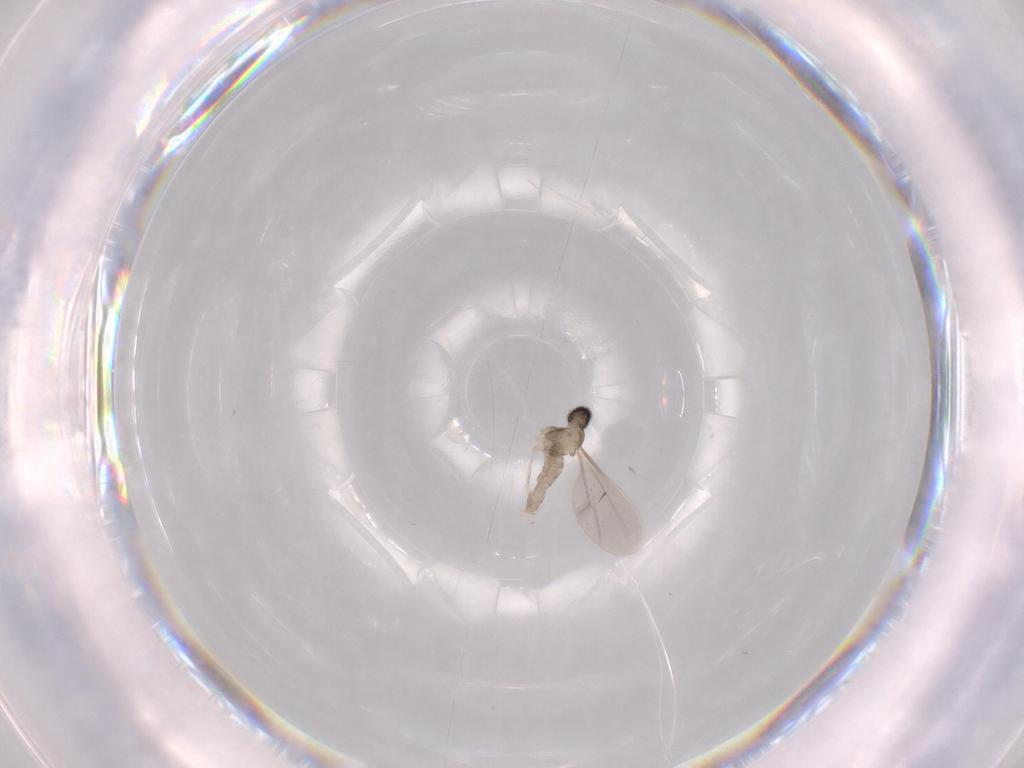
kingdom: Animalia
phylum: Arthropoda
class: Insecta
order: Diptera
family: Cecidomyiidae
